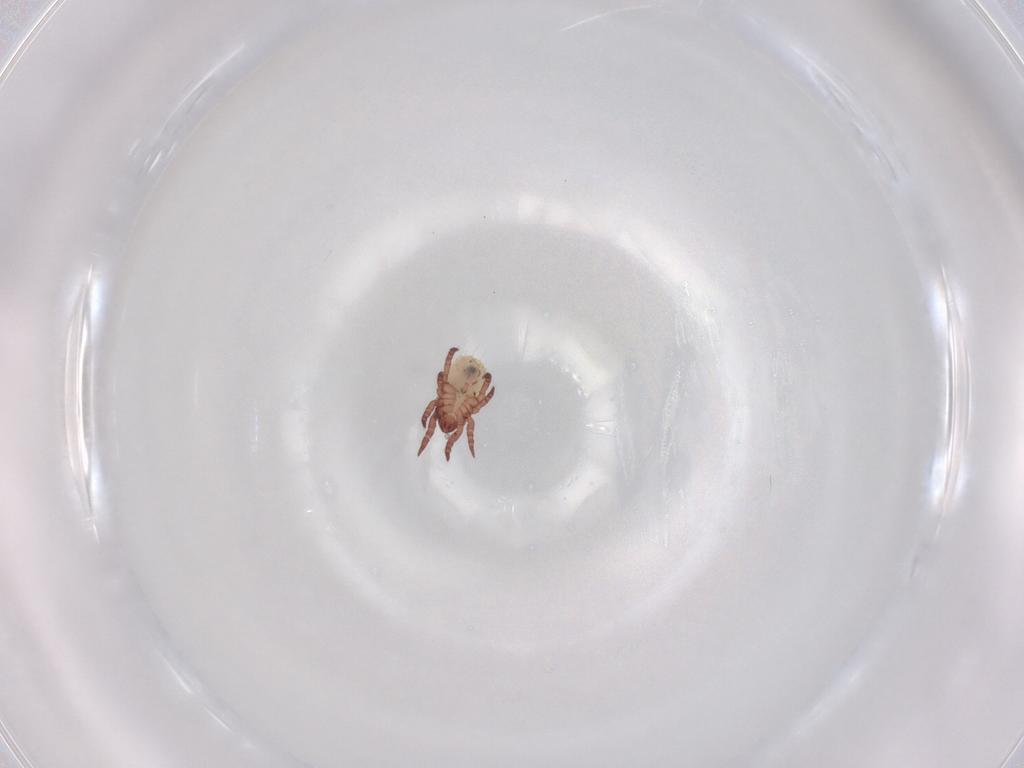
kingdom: Animalia
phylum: Arthropoda
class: Arachnida
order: Sarcoptiformes
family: Nothridae
